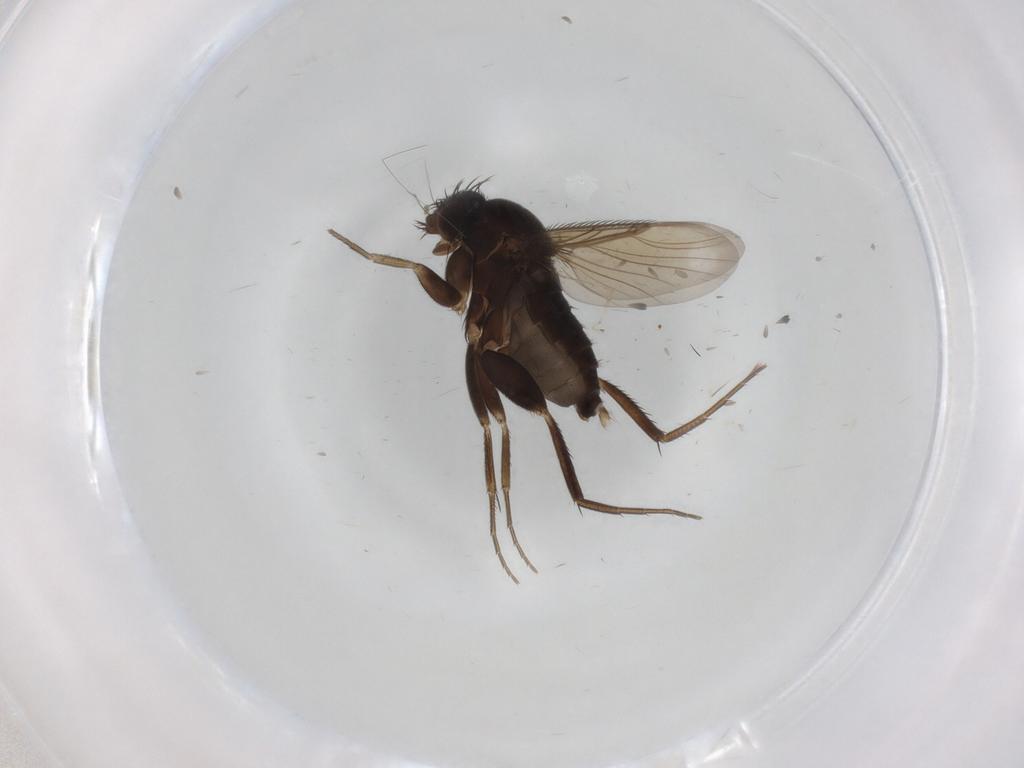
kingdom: Animalia
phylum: Arthropoda
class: Insecta
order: Diptera
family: Phoridae
